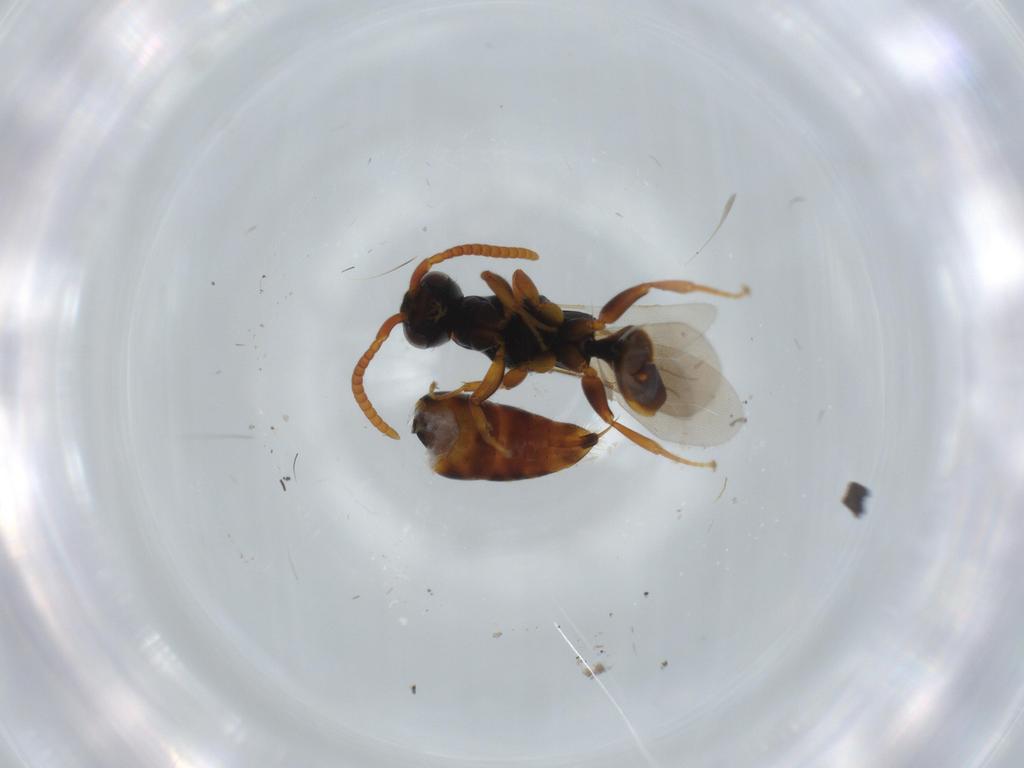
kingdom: Animalia
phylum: Arthropoda
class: Insecta
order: Hymenoptera
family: Bethylidae
